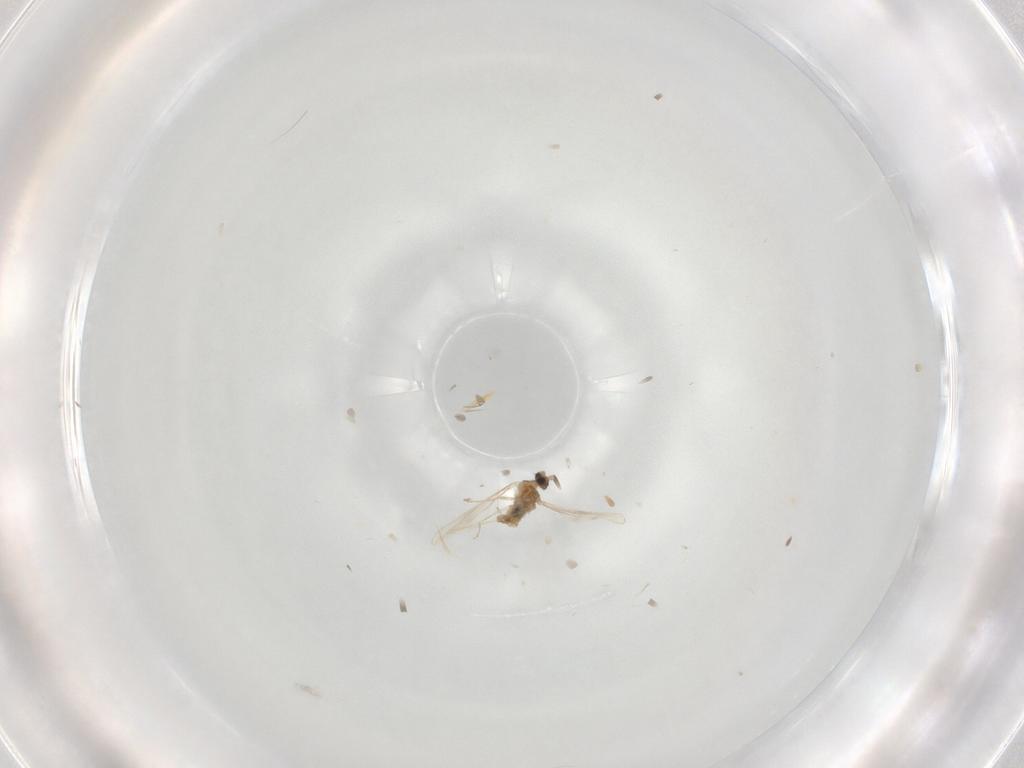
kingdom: Animalia
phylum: Arthropoda
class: Insecta
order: Diptera
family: Cecidomyiidae
